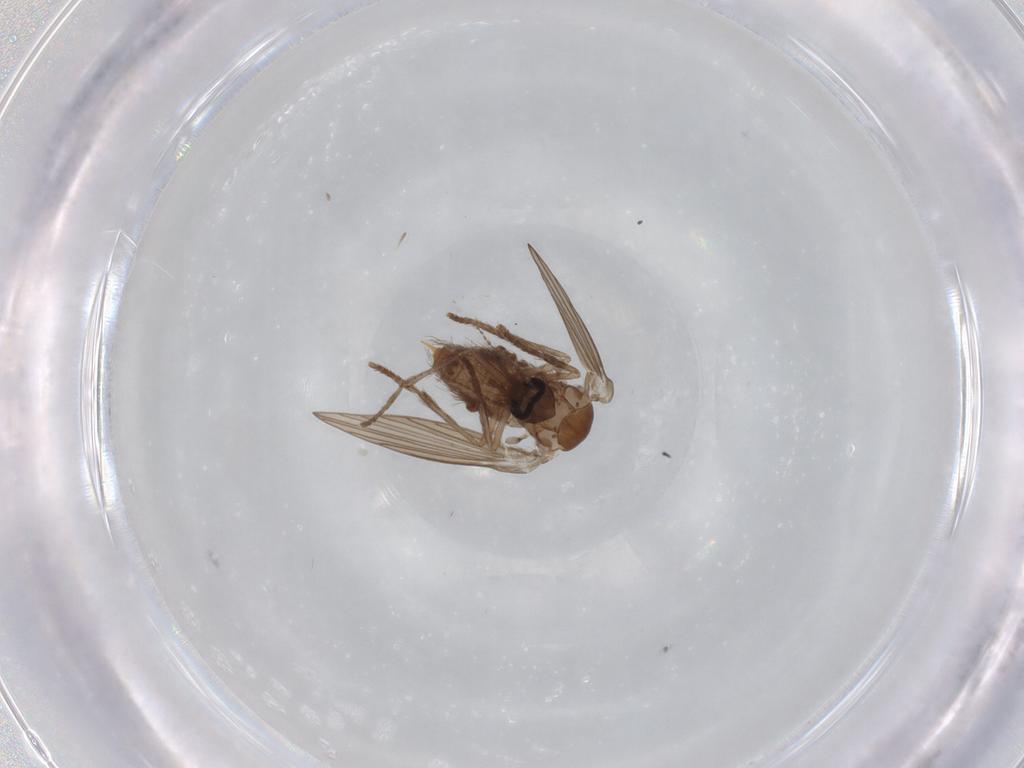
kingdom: Animalia
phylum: Arthropoda
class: Insecta
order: Diptera
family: Psychodidae
